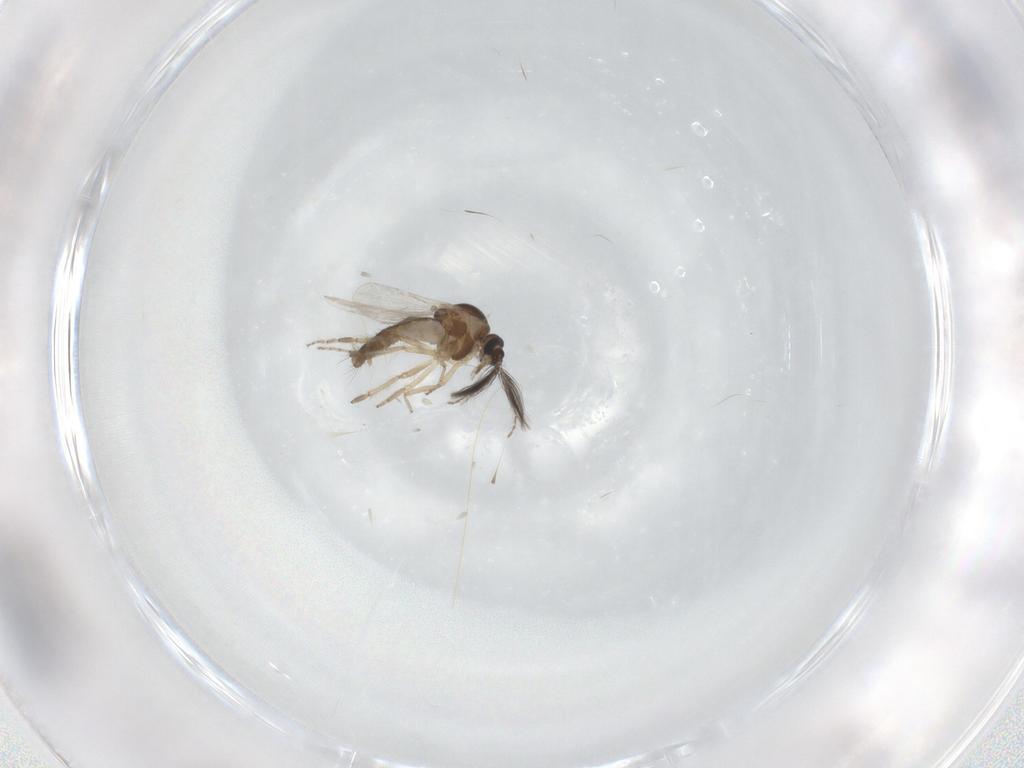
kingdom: Animalia
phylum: Arthropoda
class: Insecta
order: Diptera
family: Ceratopogonidae
